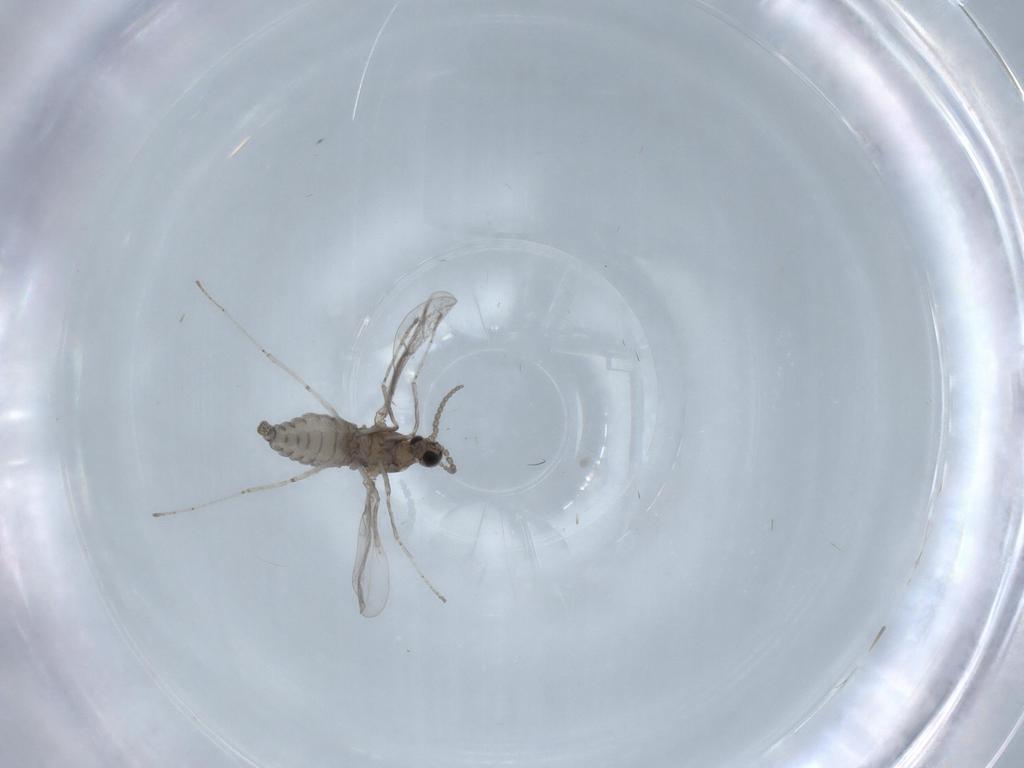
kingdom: Animalia
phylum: Arthropoda
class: Insecta
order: Diptera
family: Cecidomyiidae
